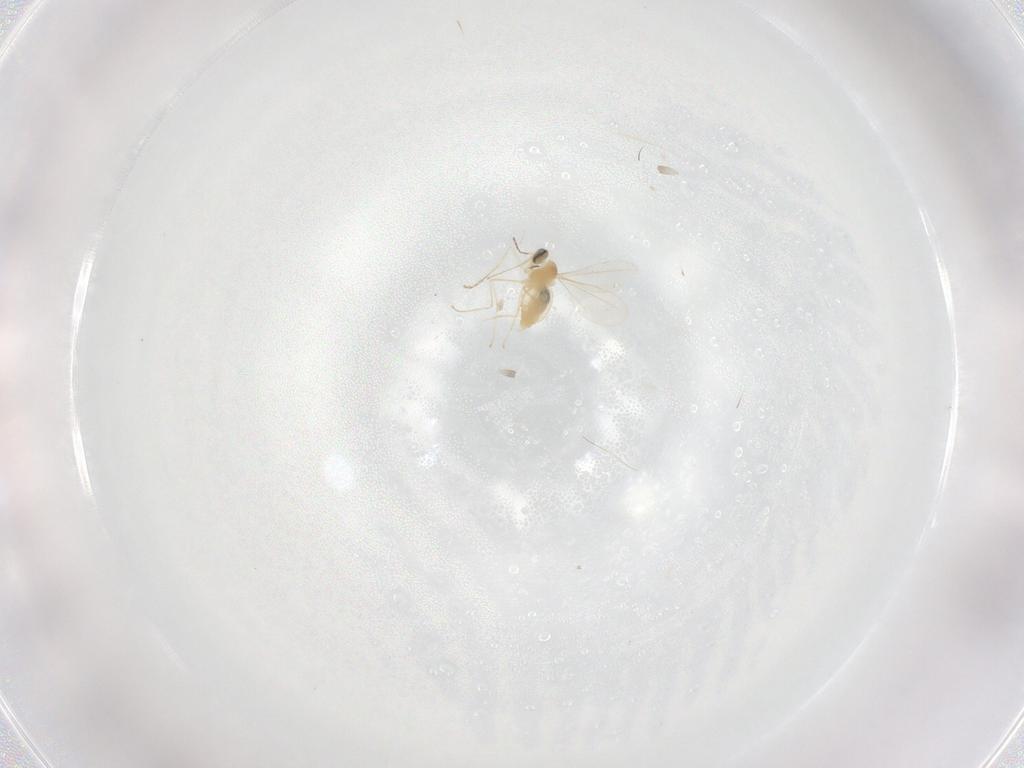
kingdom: Animalia
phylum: Arthropoda
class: Insecta
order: Diptera
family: Cecidomyiidae
